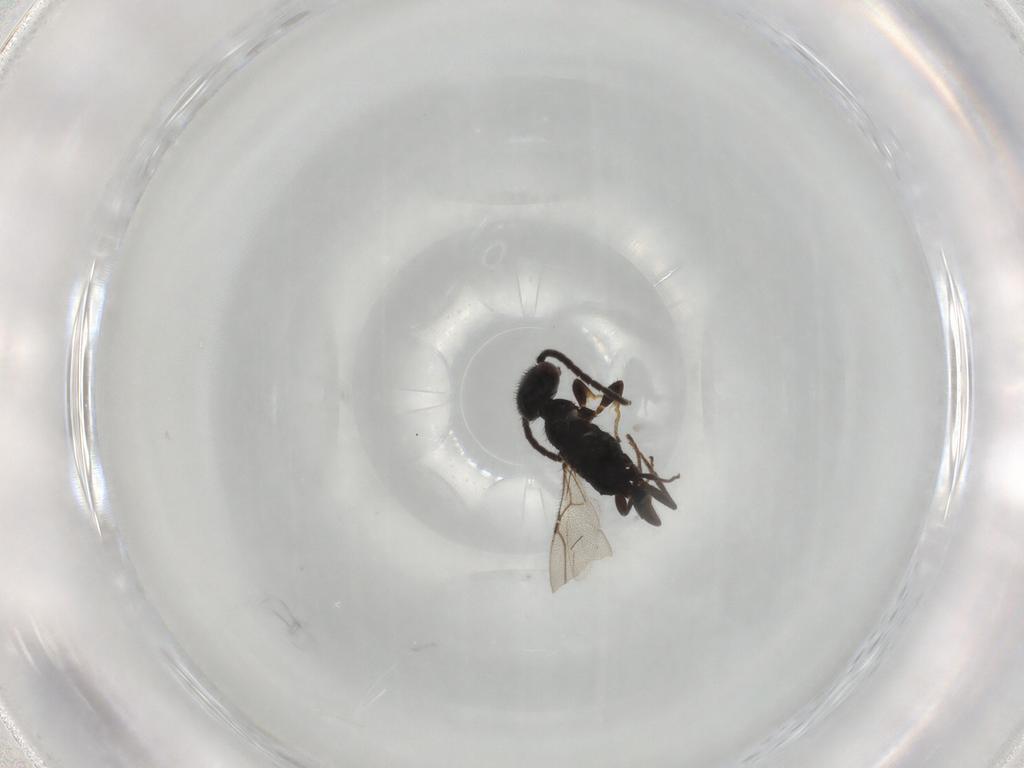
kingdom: Animalia
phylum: Arthropoda
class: Insecta
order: Hymenoptera
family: Bethylidae
